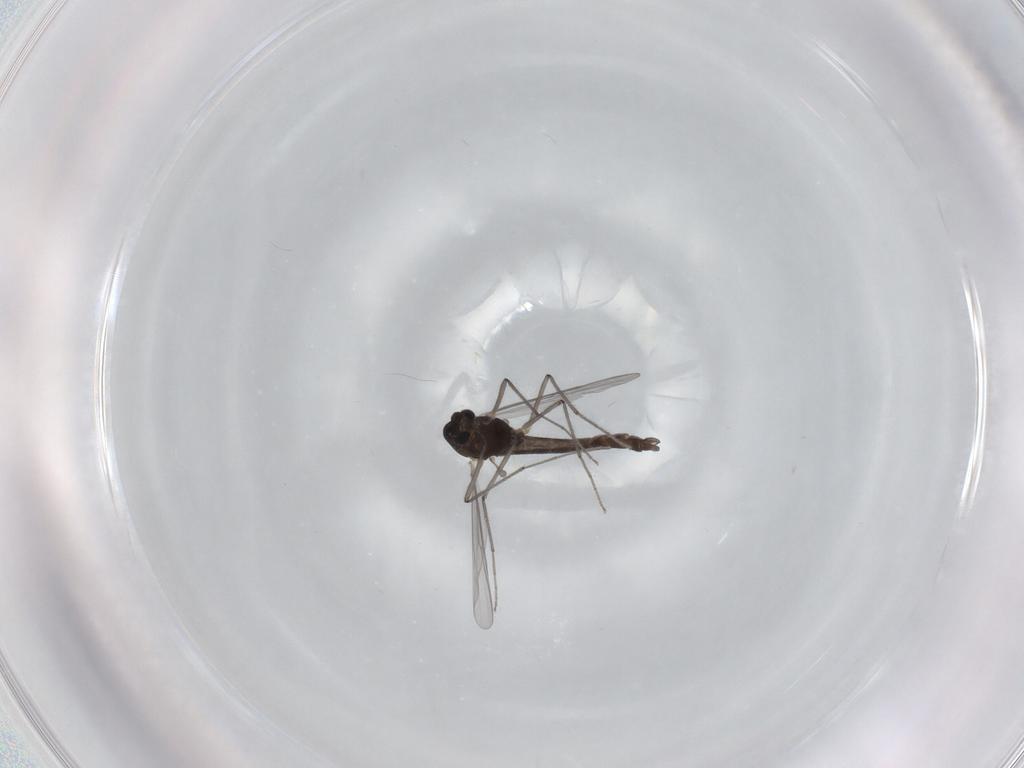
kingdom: Animalia
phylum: Arthropoda
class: Insecta
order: Diptera
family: Chironomidae
